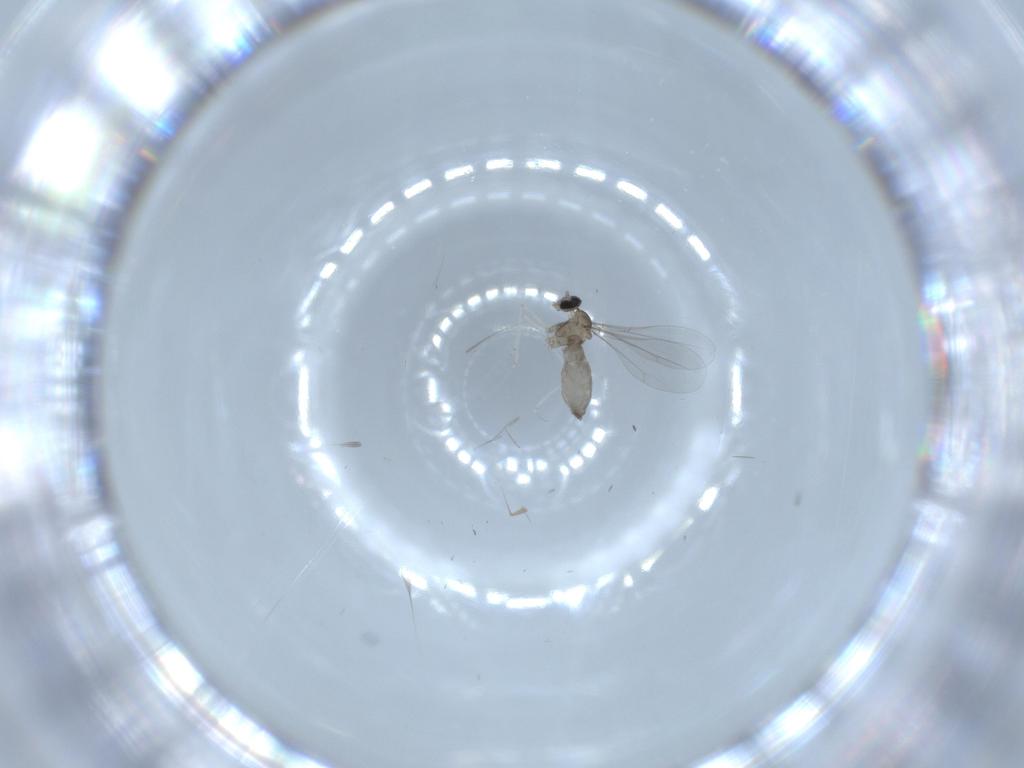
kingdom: Animalia
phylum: Arthropoda
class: Insecta
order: Diptera
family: Cecidomyiidae
